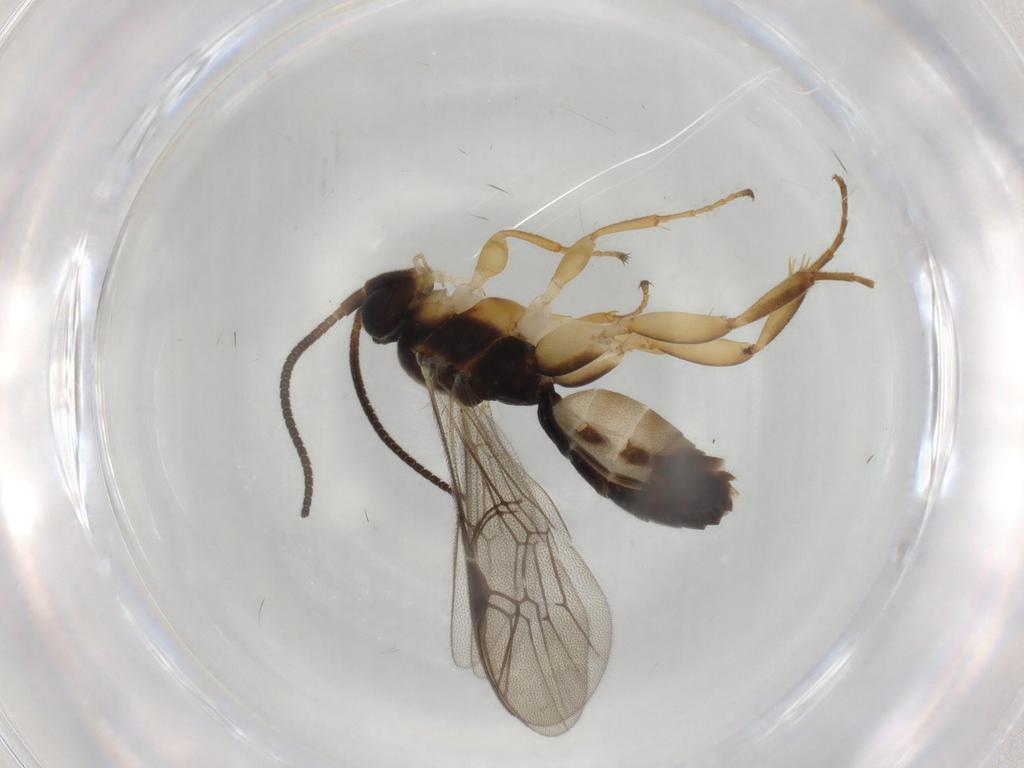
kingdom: Animalia
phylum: Arthropoda
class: Insecta
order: Hymenoptera
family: Ichneumonidae
